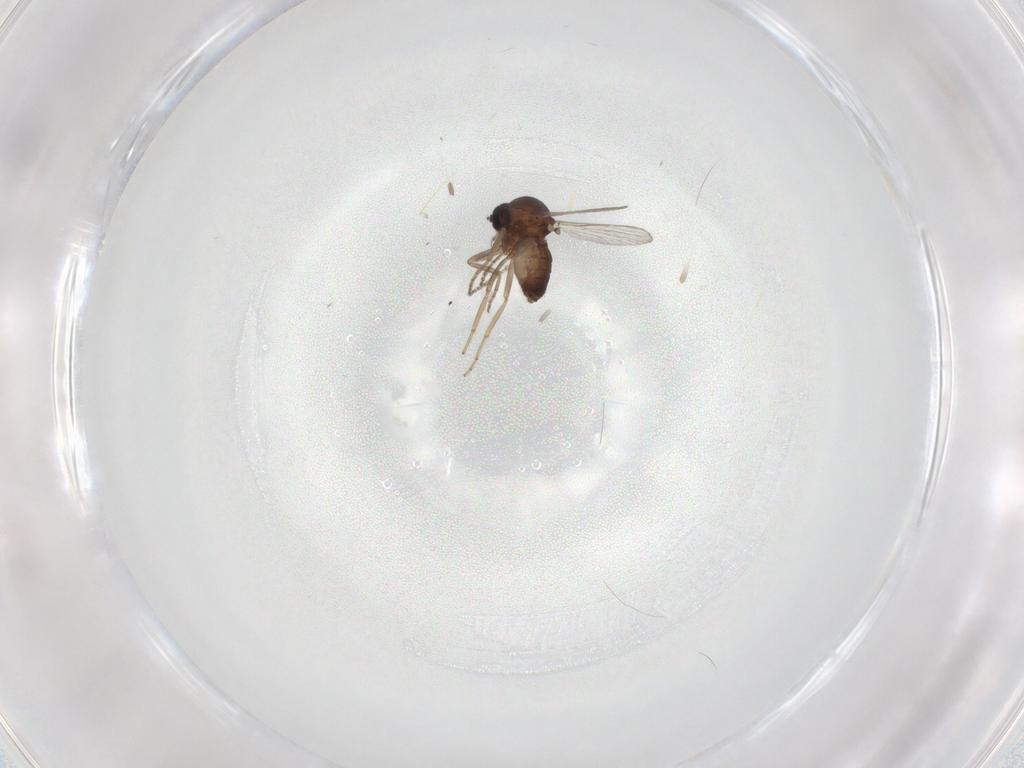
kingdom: Animalia
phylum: Arthropoda
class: Insecta
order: Diptera
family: Ceratopogonidae
